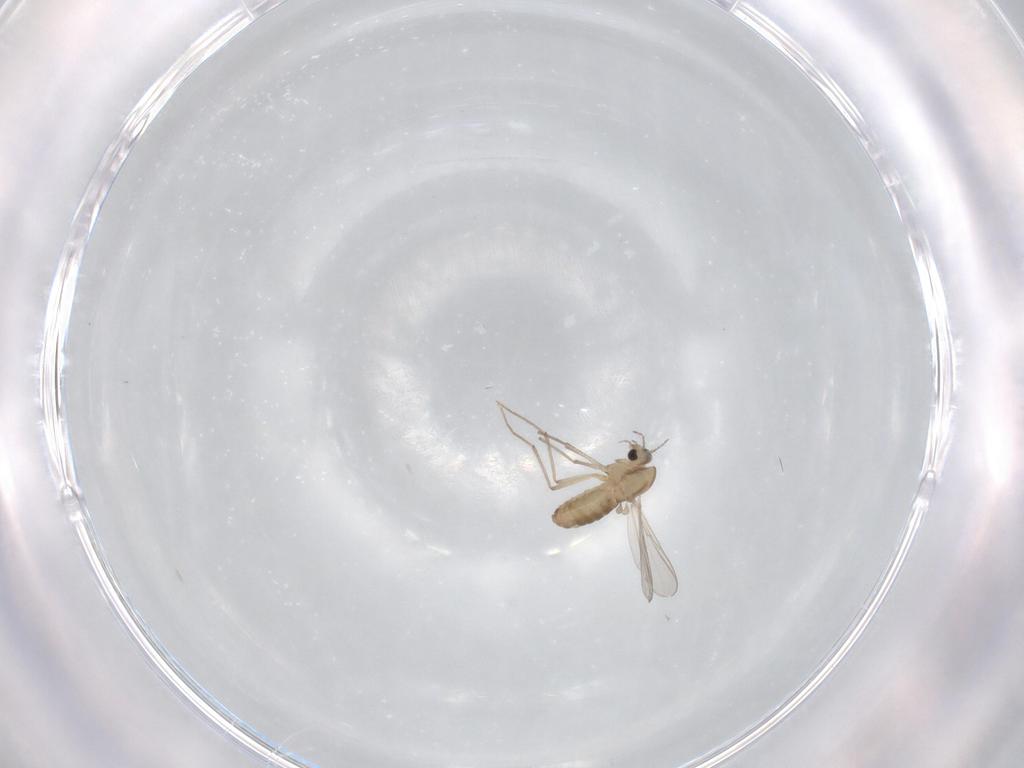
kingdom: Animalia
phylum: Arthropoda
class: Insecta
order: Diptera
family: Chironomidae
